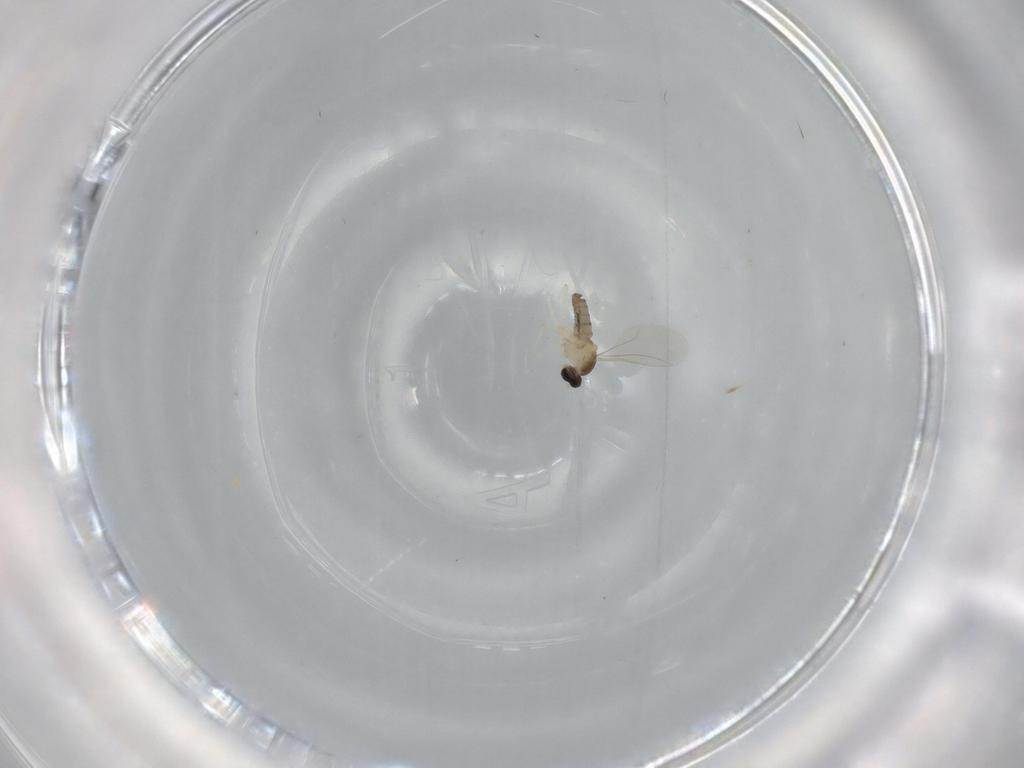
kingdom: Animalia
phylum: Arthropoda
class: Insecta
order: Diptera
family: Cecidomyiidae
